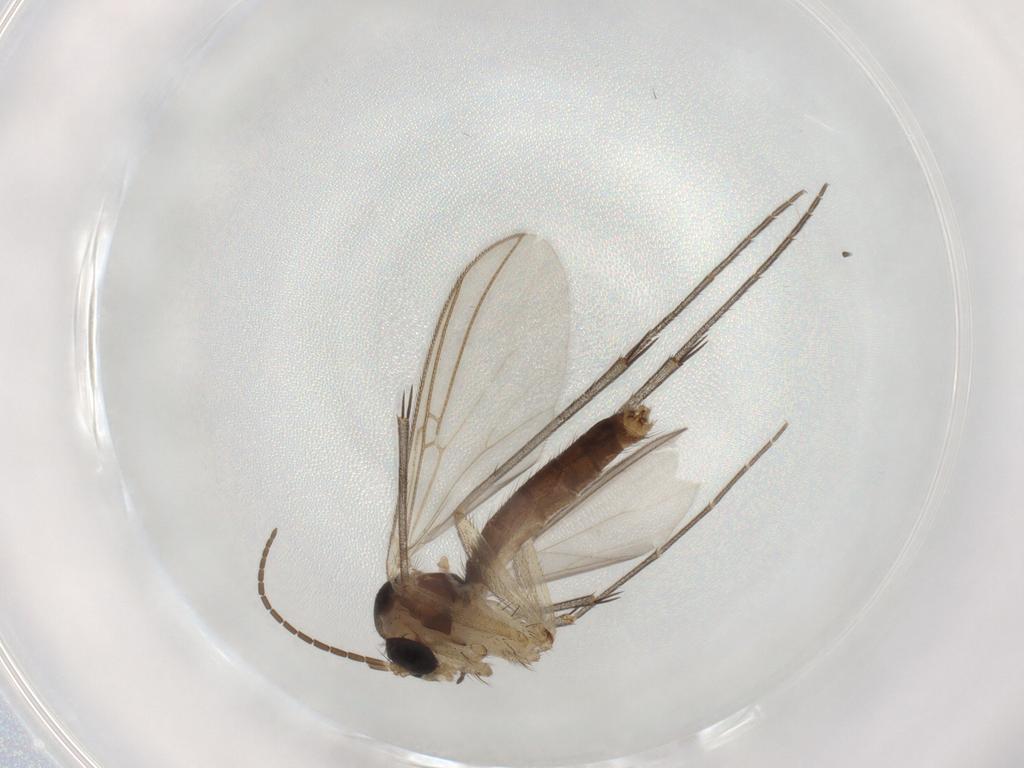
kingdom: Animalia
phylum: Arthropoda
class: Insecta
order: Diptera
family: Cecidomyiidae
